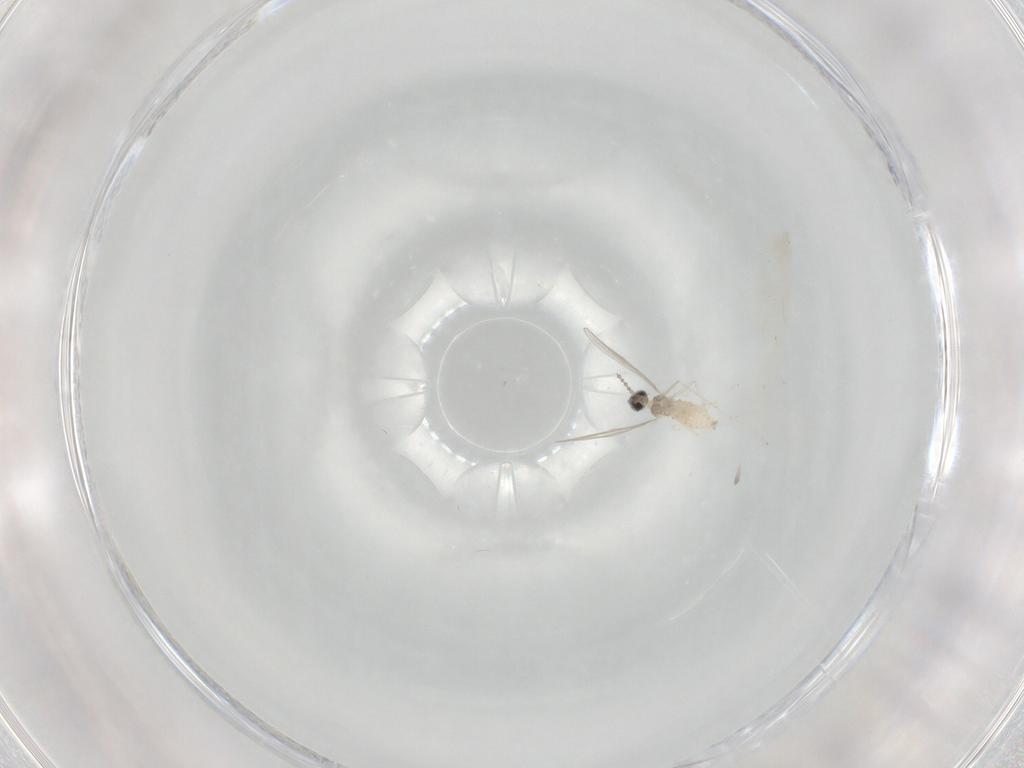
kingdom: Animalia
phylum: Arthropoda
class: Insecta
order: Diptera
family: Cecidomyiidae
